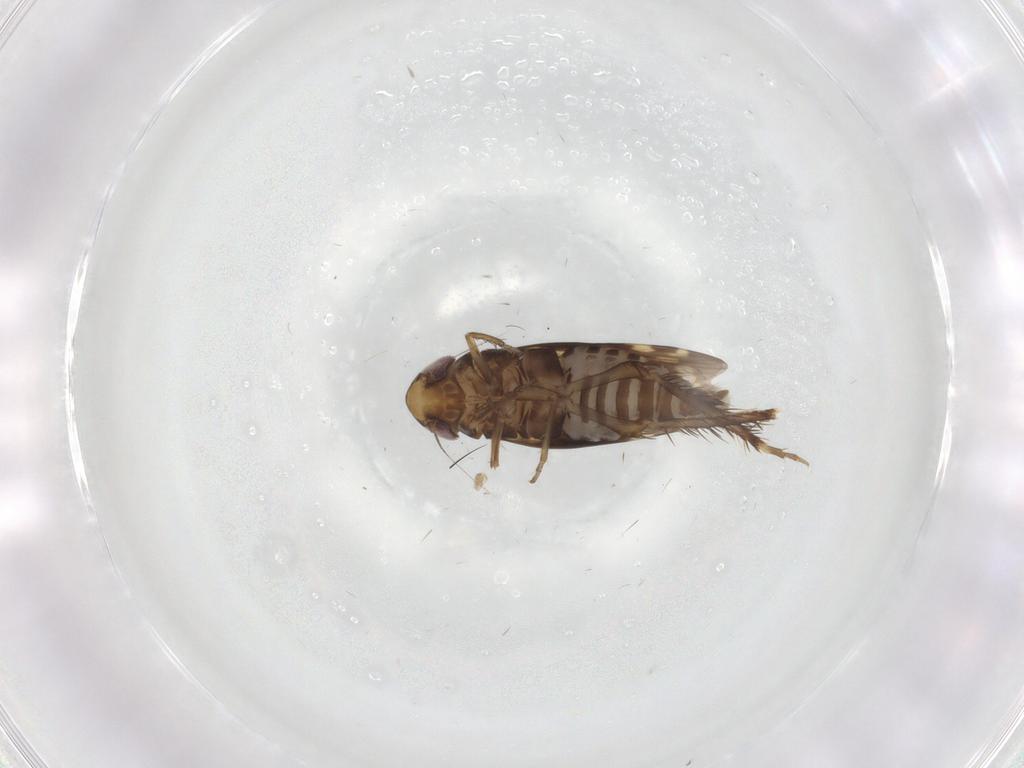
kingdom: Animalia
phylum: Arthropoda
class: Insecta
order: Hemiptera
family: Cicadellidae
